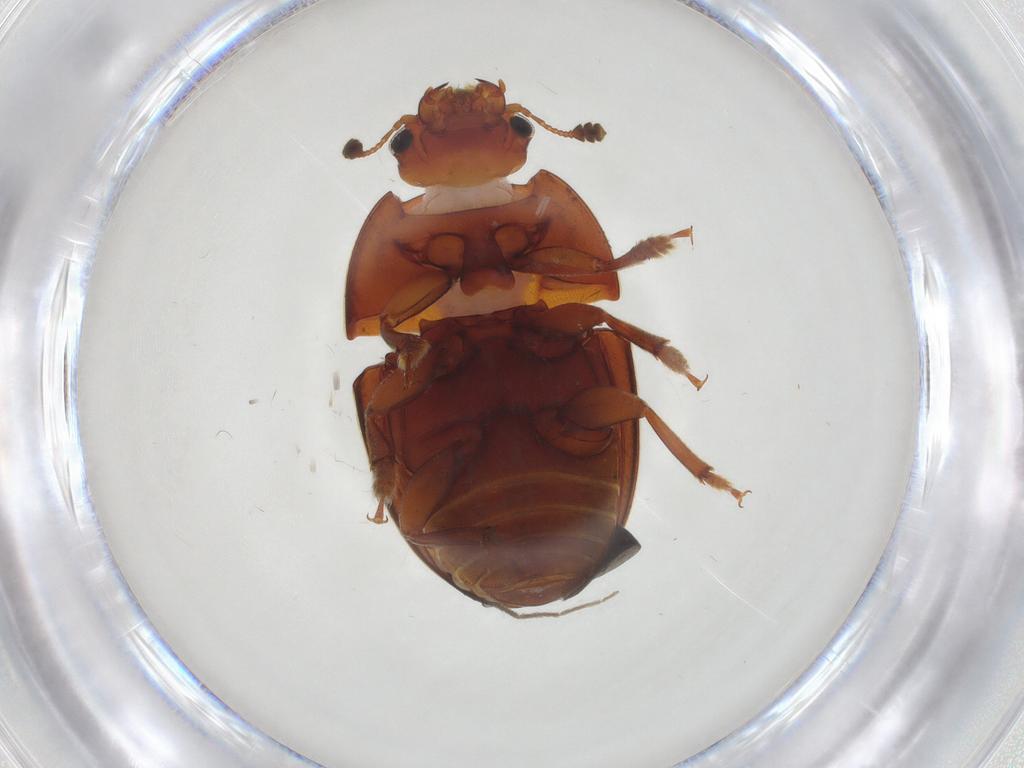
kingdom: Animalia
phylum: Arthropoda
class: Insecta
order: Coleoptera
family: Nitidulidae
